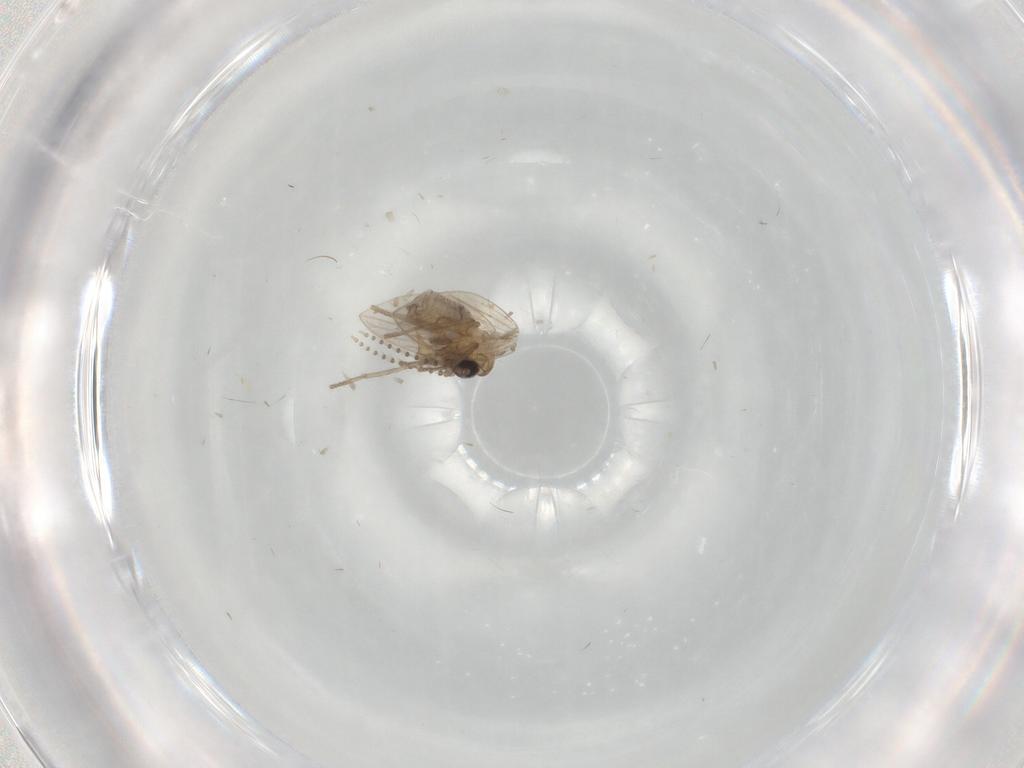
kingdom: Animalia
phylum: Arthropoda
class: Insecta
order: Diptera
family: Psychodidae
